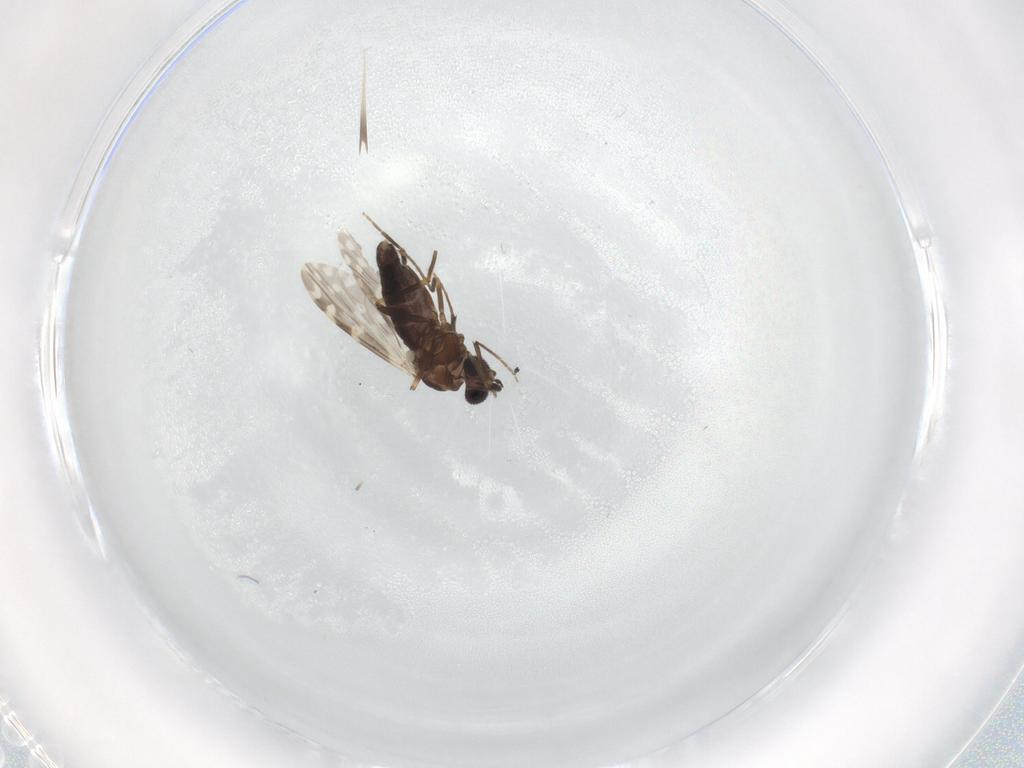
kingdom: Animalia
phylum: Arthropoda
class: Insecta
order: Diptera
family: Ceratopogonidae
